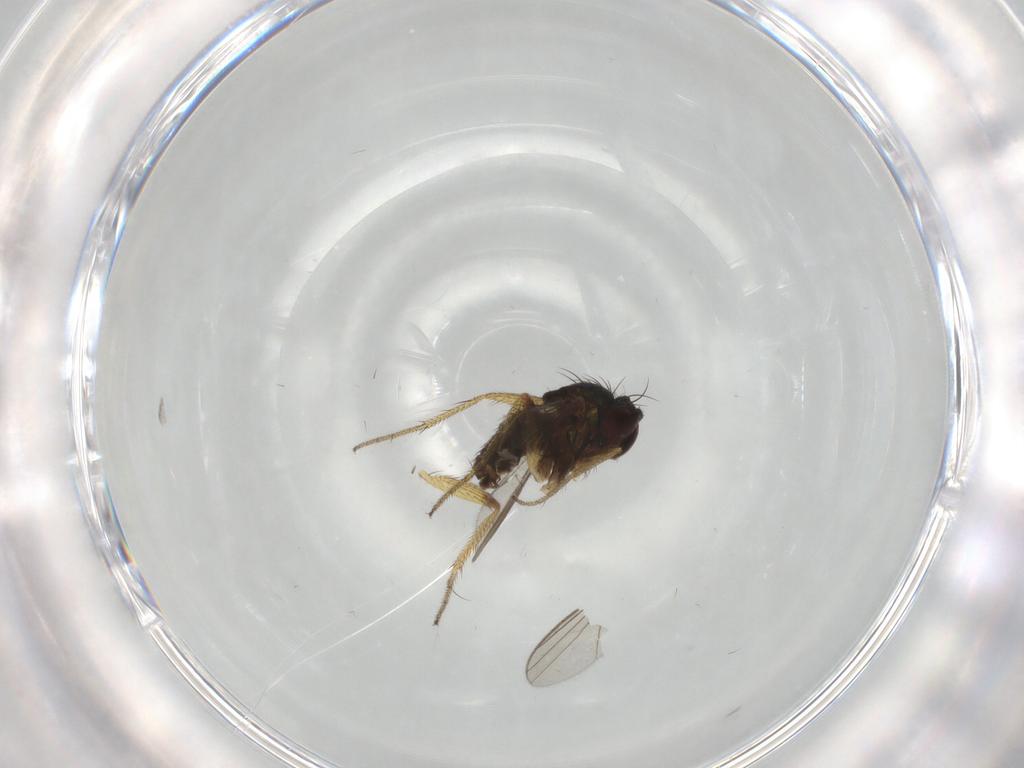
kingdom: Animalia
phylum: Arthropoda
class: Insecta
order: Diptera
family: Dolichopodidae
